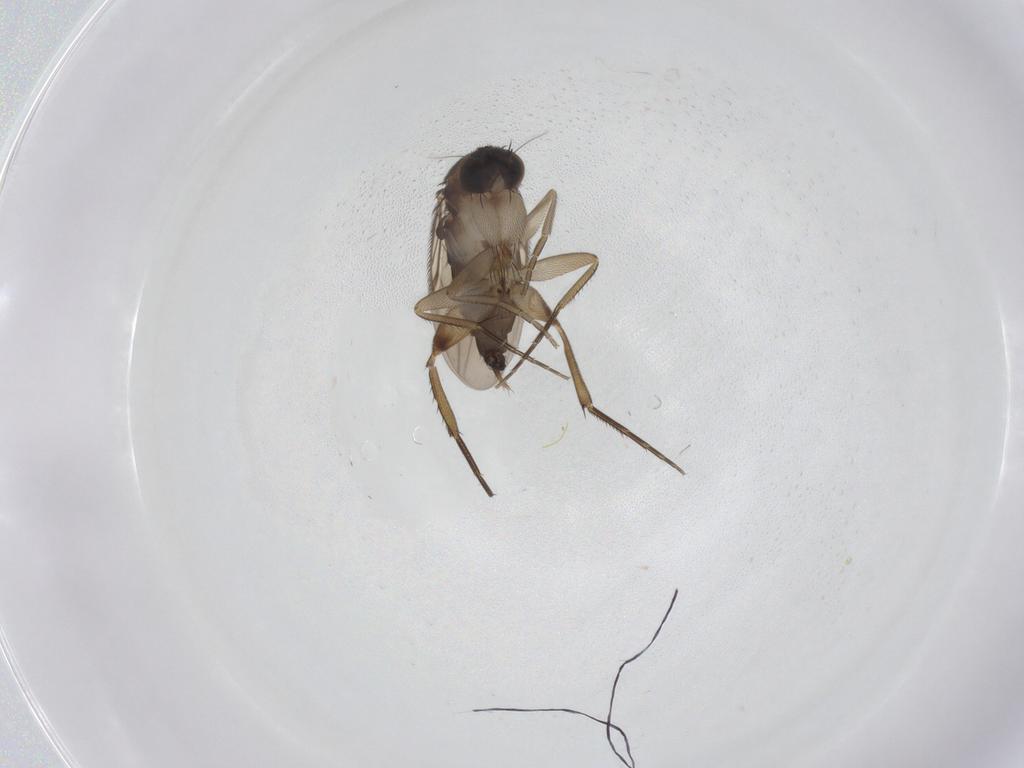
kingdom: Animalia
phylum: Arthropoda
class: Insecta
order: Diptera
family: Phoridae
